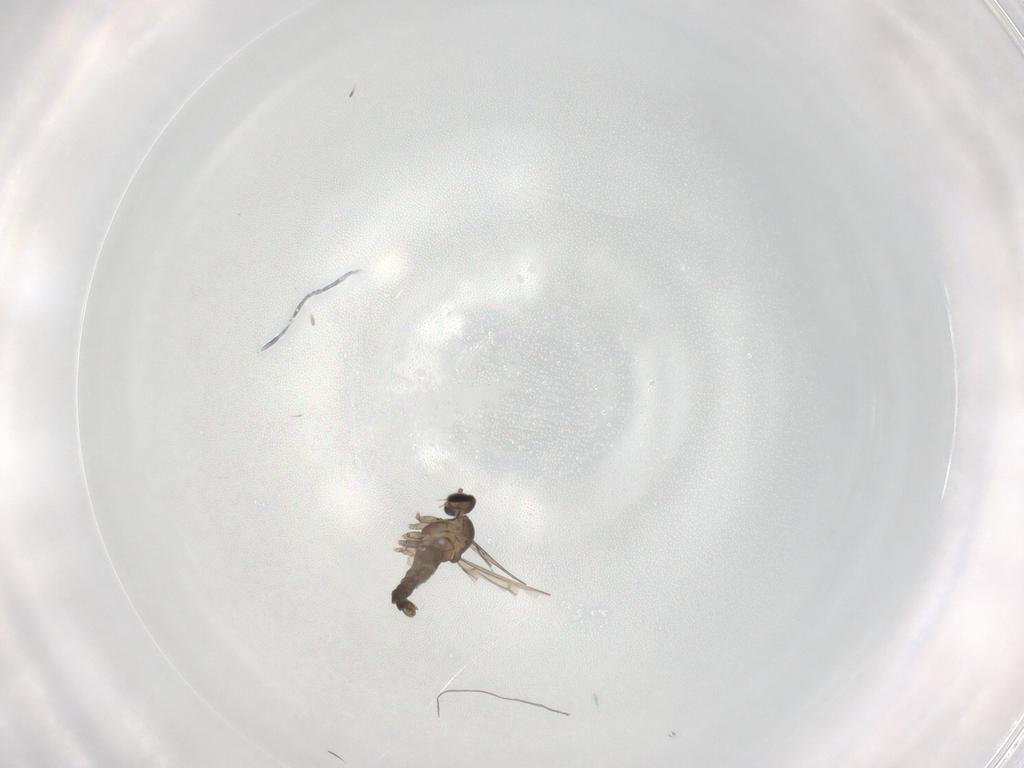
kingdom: Animalia
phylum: Arthropoda
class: Insecta
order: Diptera
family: Cecidomyiidae
